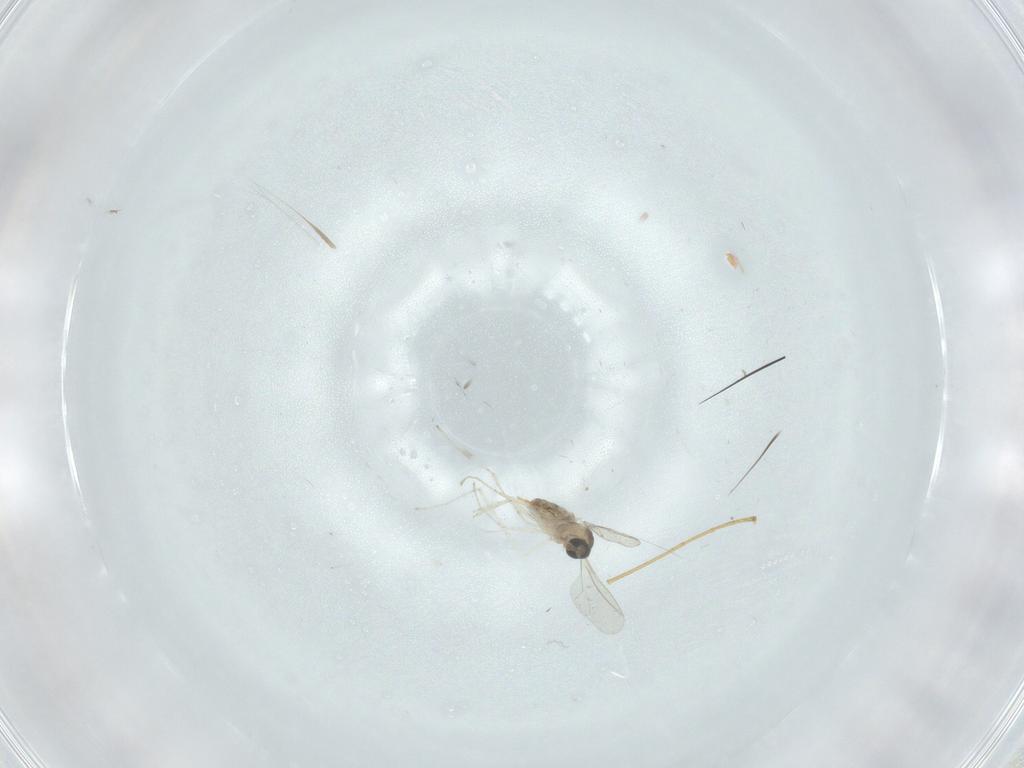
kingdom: Animalia
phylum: Arthropoda
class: Insecta
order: Diptera
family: Cecidomyiidae
